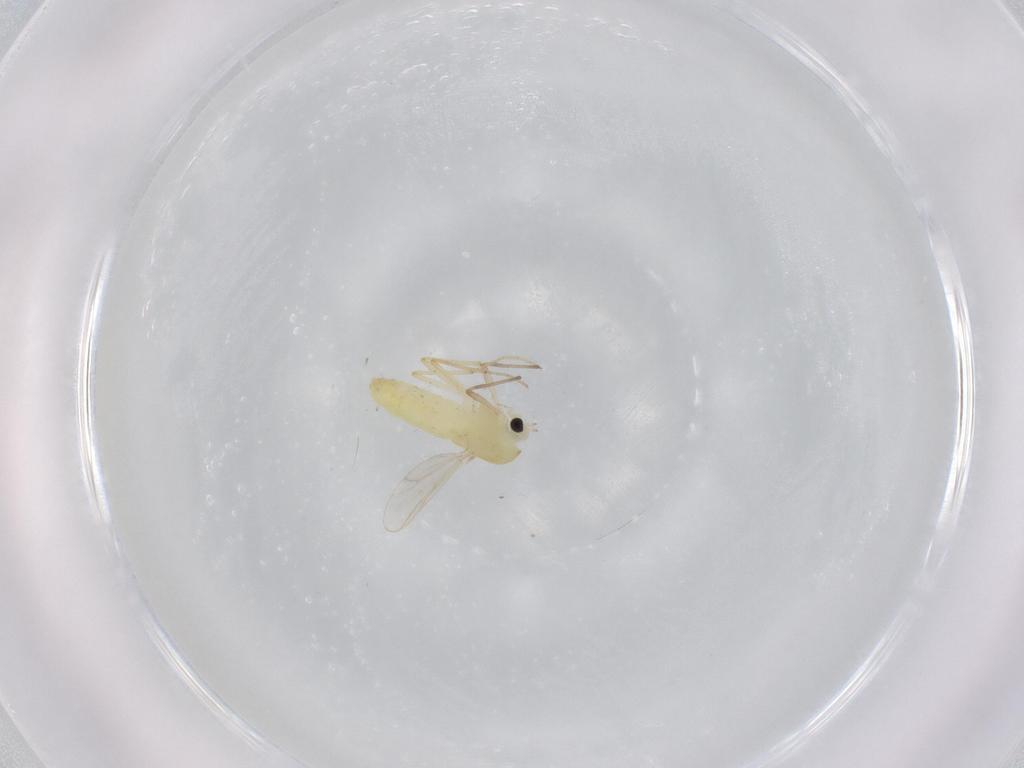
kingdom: Animalia
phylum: Arthropoda
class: Insecta
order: Diptera
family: Chironomidae
